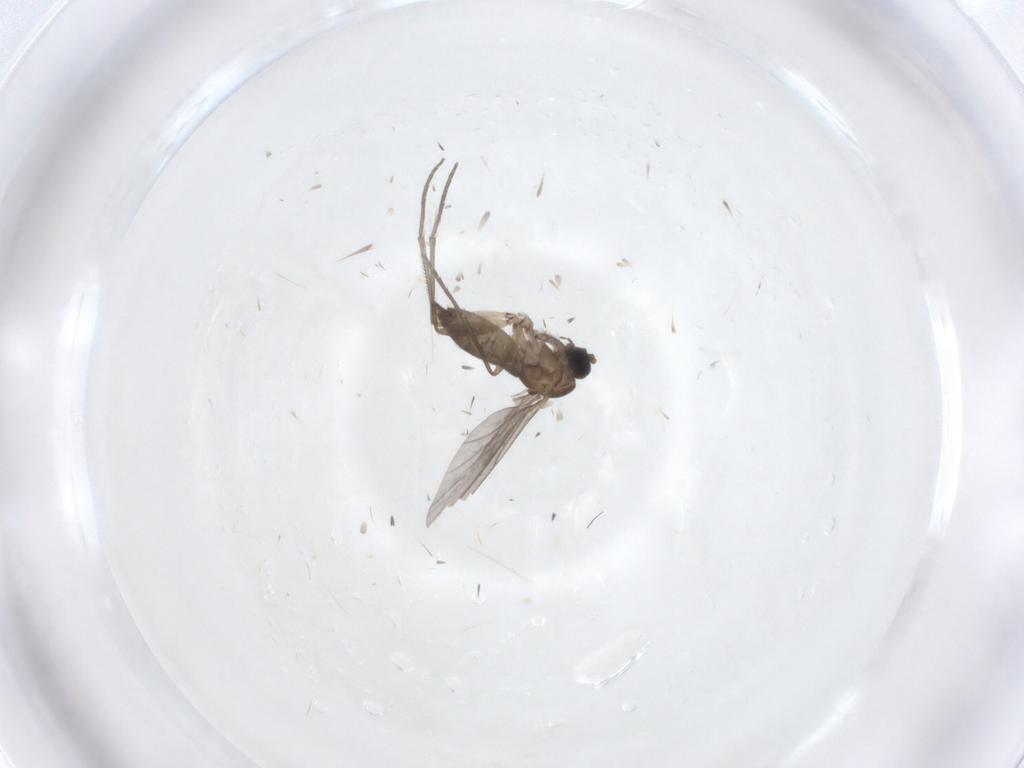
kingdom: Animalia
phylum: Arthropoda
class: Insecta
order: Diptera
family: Sciaridae
